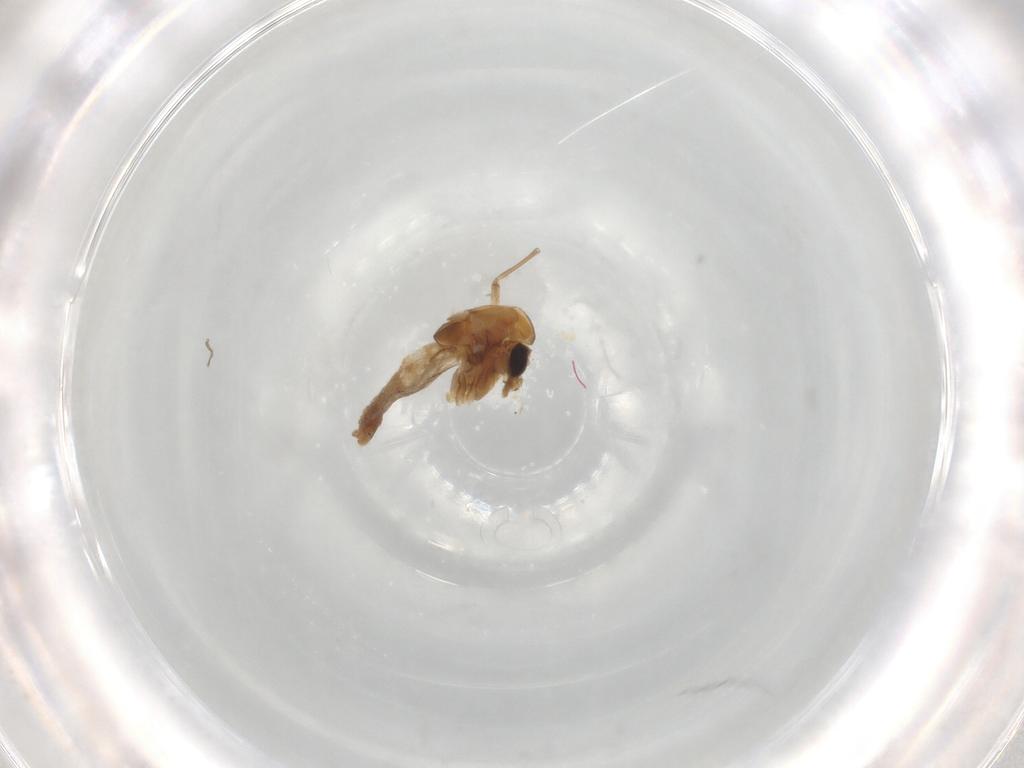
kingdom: Animalia
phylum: Arthropoda
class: Insecta
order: Diptera
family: Chironomidae
